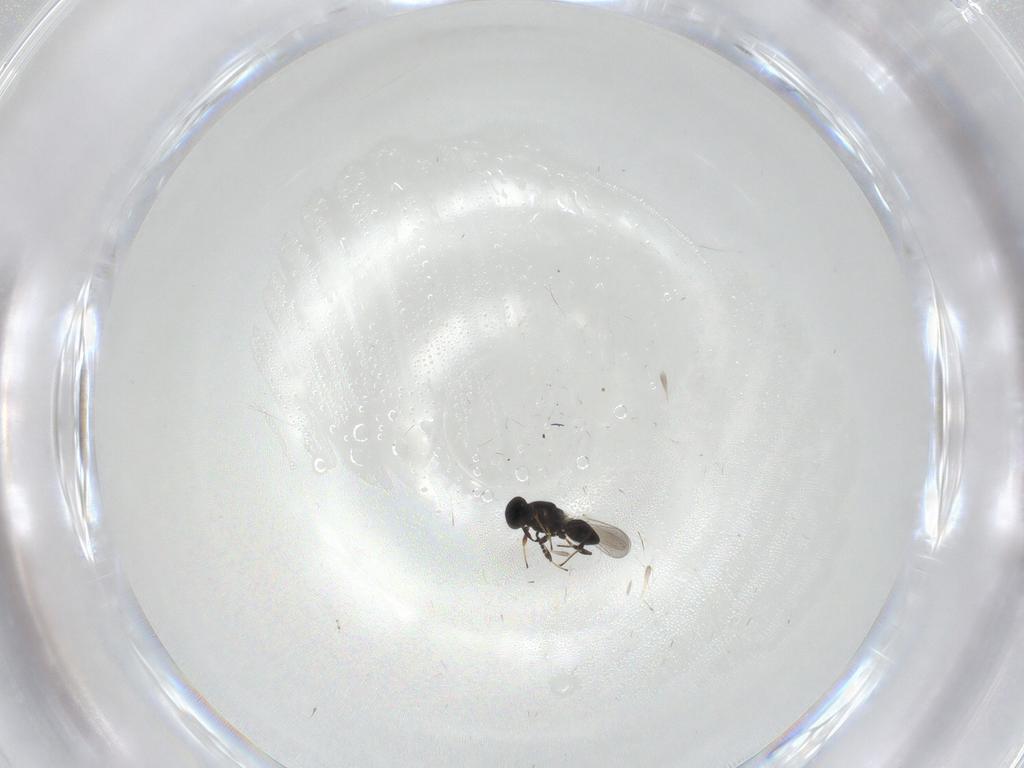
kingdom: Animalia
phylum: Arthropoda
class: Insecta
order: Hymenoptera
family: Platygastridae
